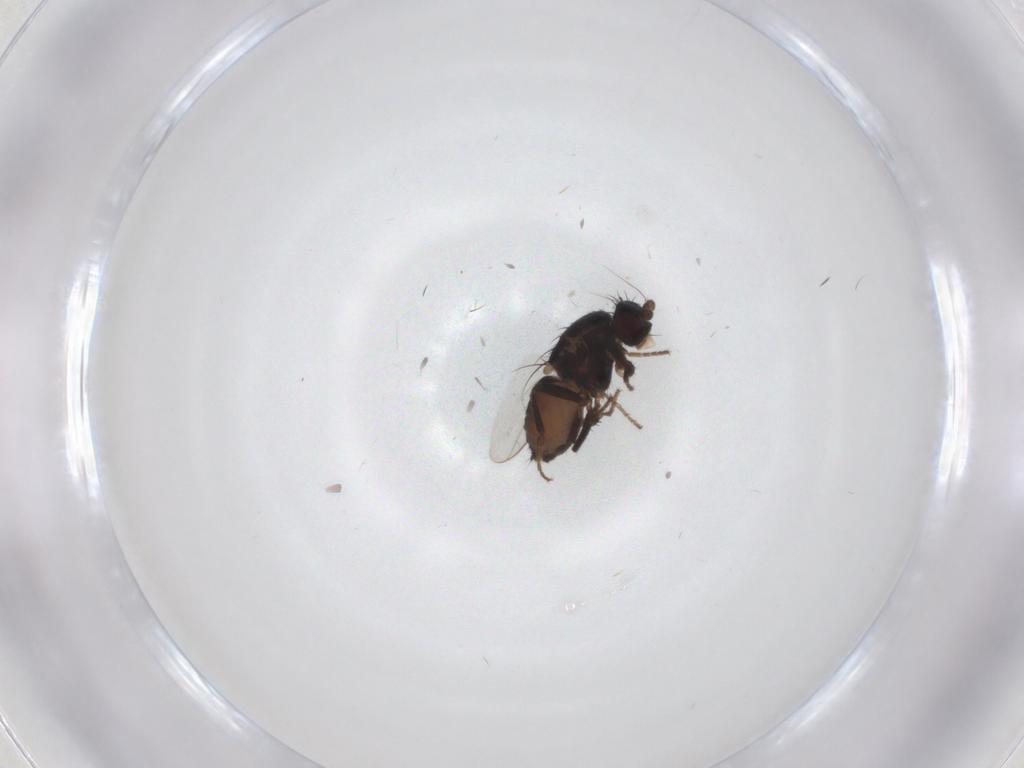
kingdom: Animalia
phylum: Arthropoda
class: Insecta
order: Diptera
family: Sphaeroceridae
